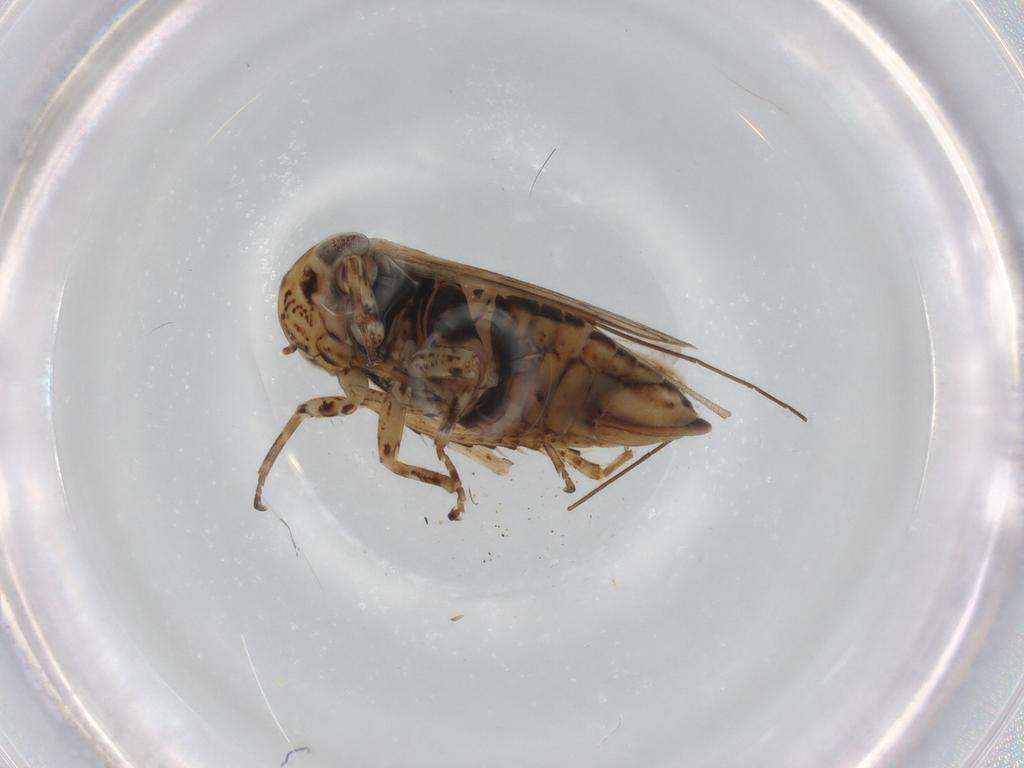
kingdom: Animalia
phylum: Arthropoda
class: Insecta
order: Hemiptera
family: Cicadellidae
